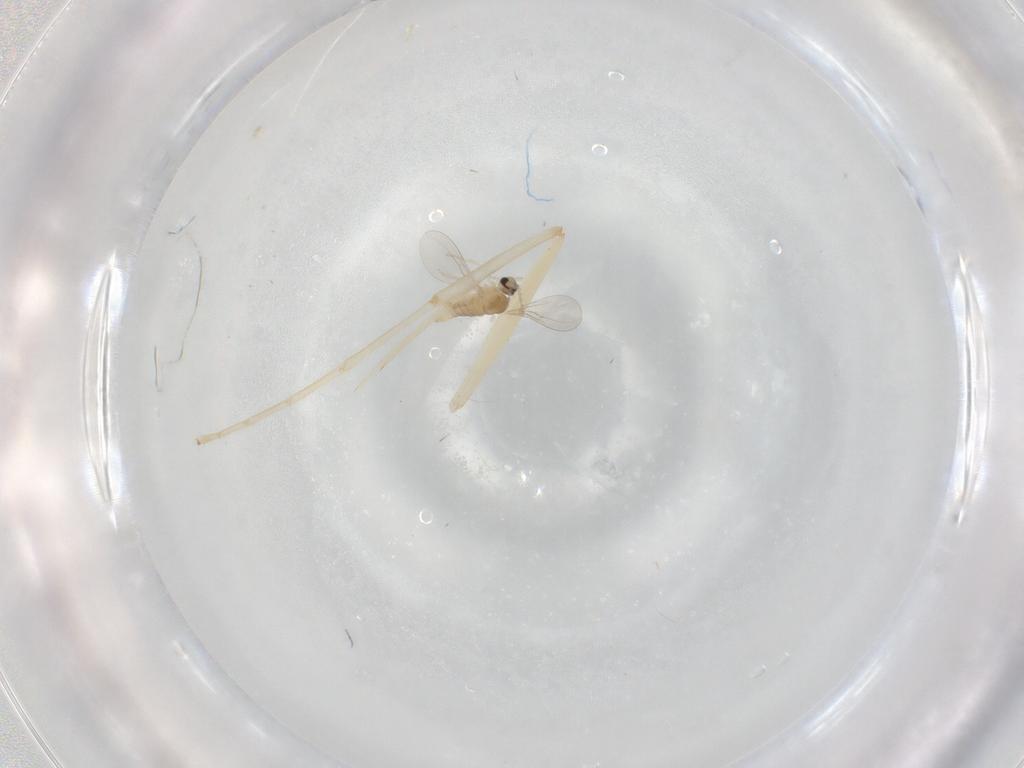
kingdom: Animalia
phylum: Arthropoda
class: Insecta
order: Diptera
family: Cecidomyiidae
